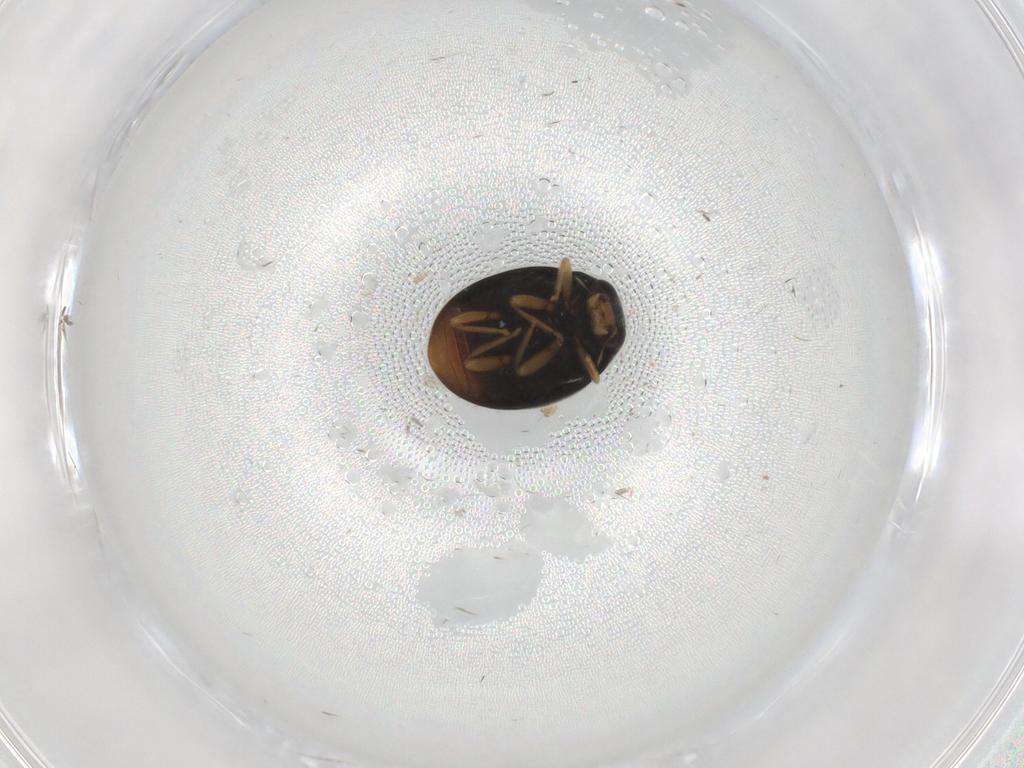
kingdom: Animalia
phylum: Arthropoda
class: Insecta
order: Coleoptera
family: Coccinellidae
